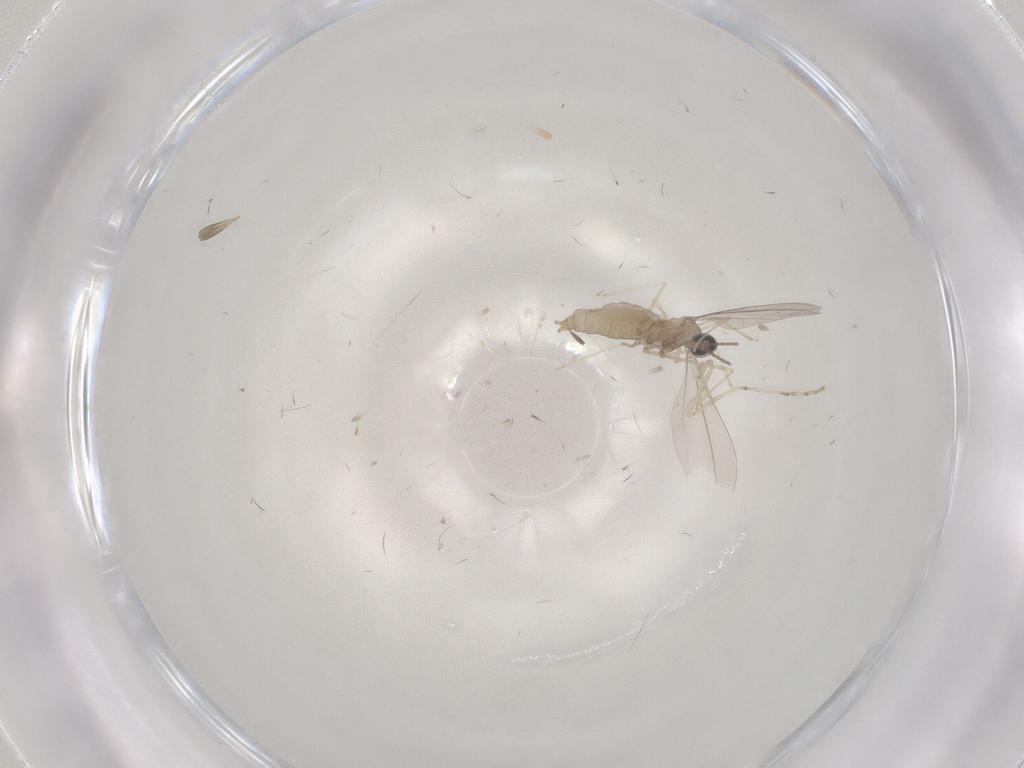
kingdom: Animalia
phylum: Arthropoda
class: Insecta
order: Diptera
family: Cecidomyiidae
